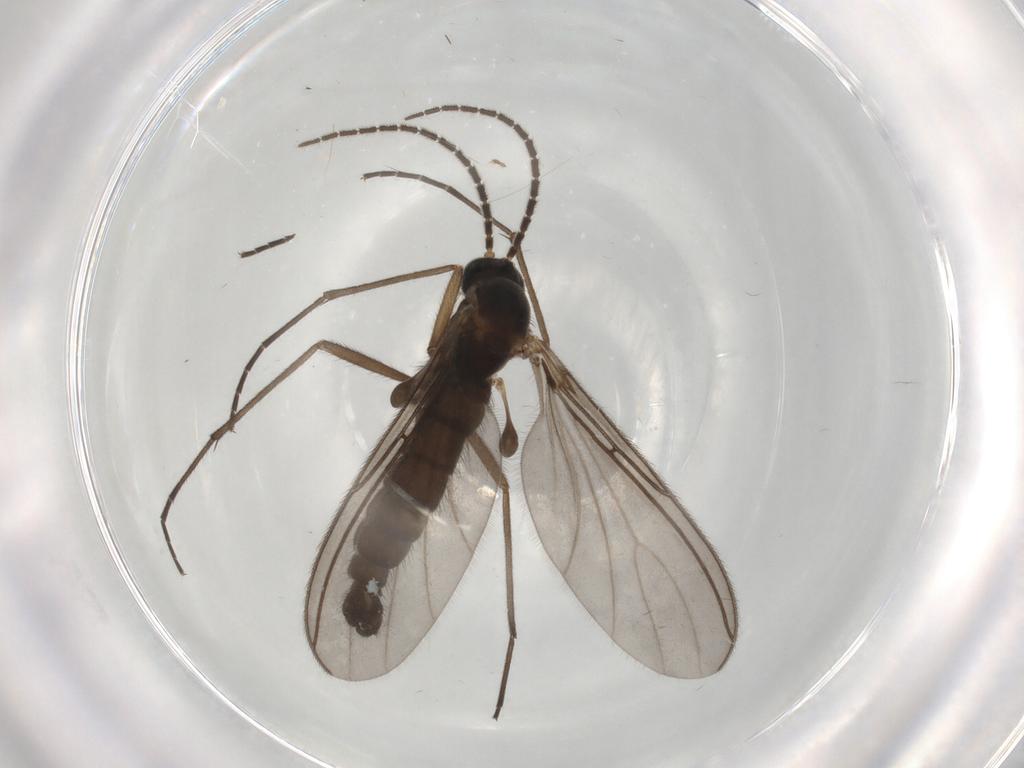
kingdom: Animalia
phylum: Arthropoda
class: Insecta
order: Diptera
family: Sciaridae
